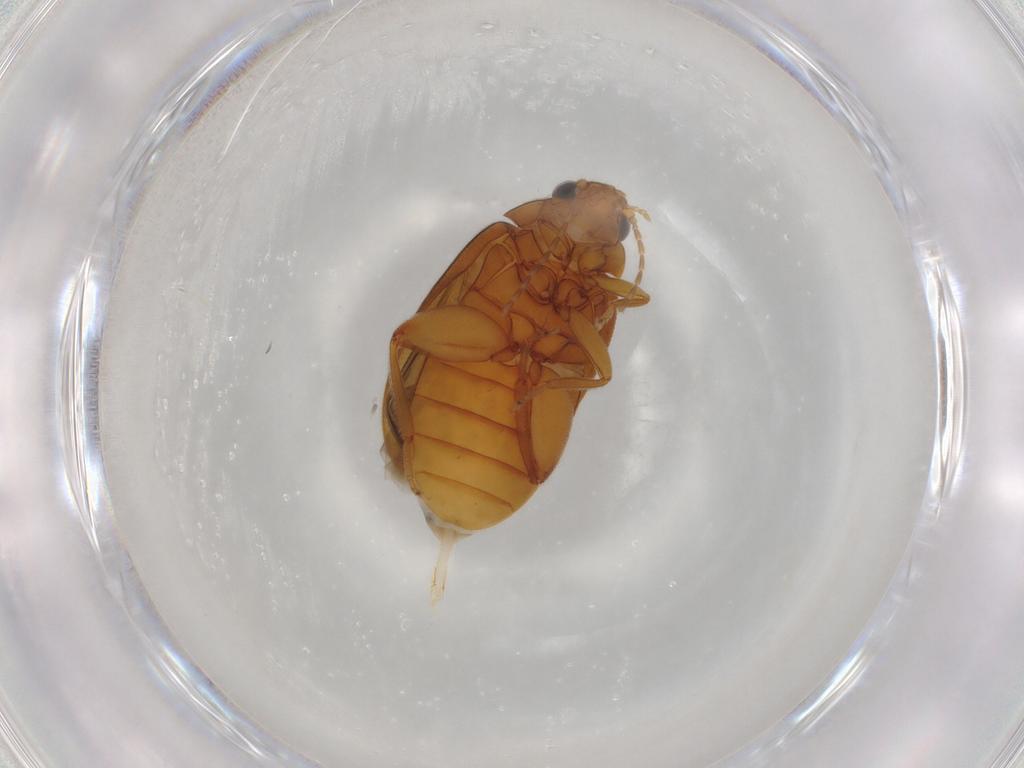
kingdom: Animalia
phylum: Arthropoda
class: Insecta
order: Coleoptera
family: Scirtidae
